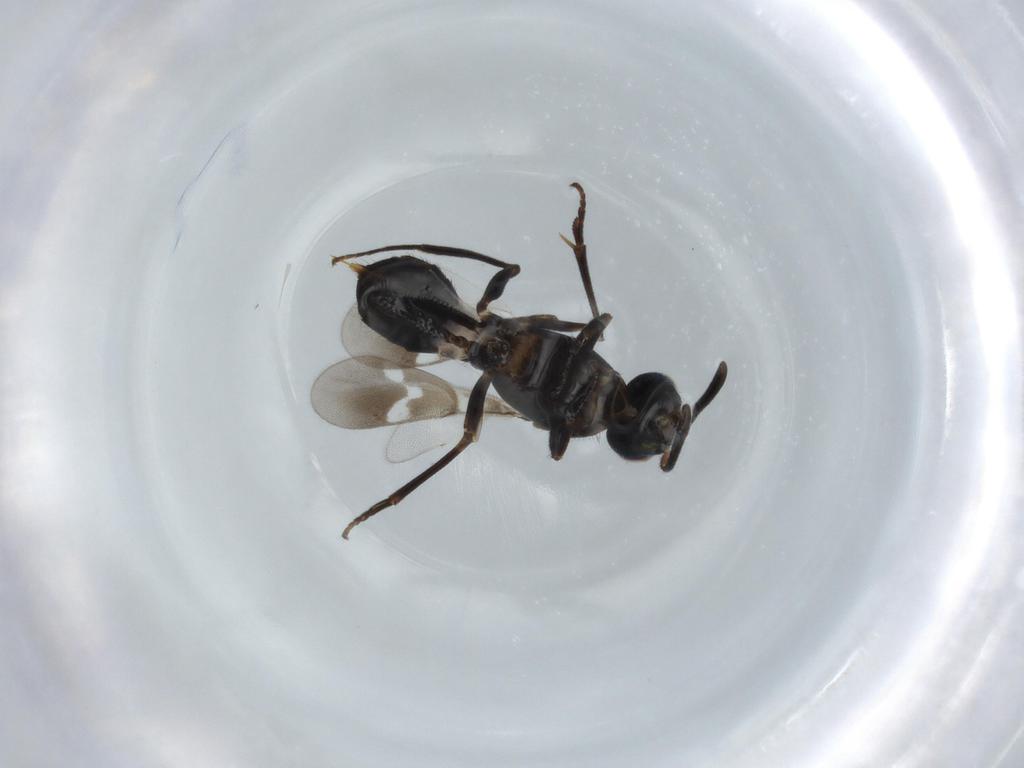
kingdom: Animalia
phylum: Arthropoda
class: Insecta
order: Hymenoptera
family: Eupelmidae
